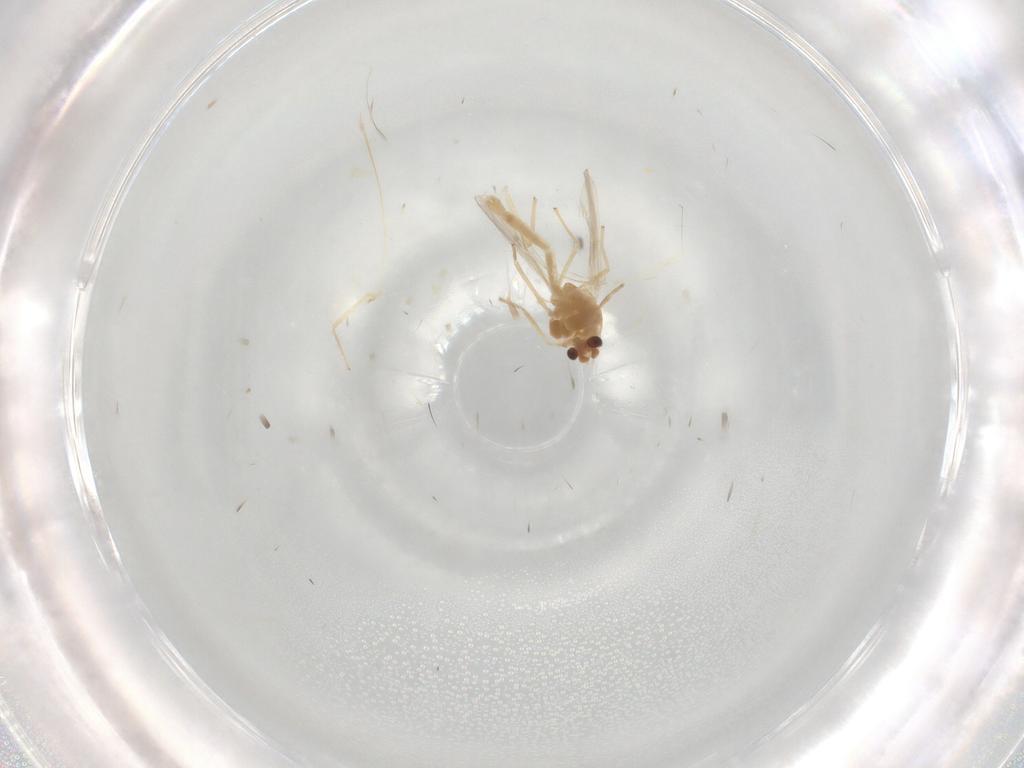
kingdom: Animalia
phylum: Arthropoda
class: Insecta
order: Diptera
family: Chironomidae
